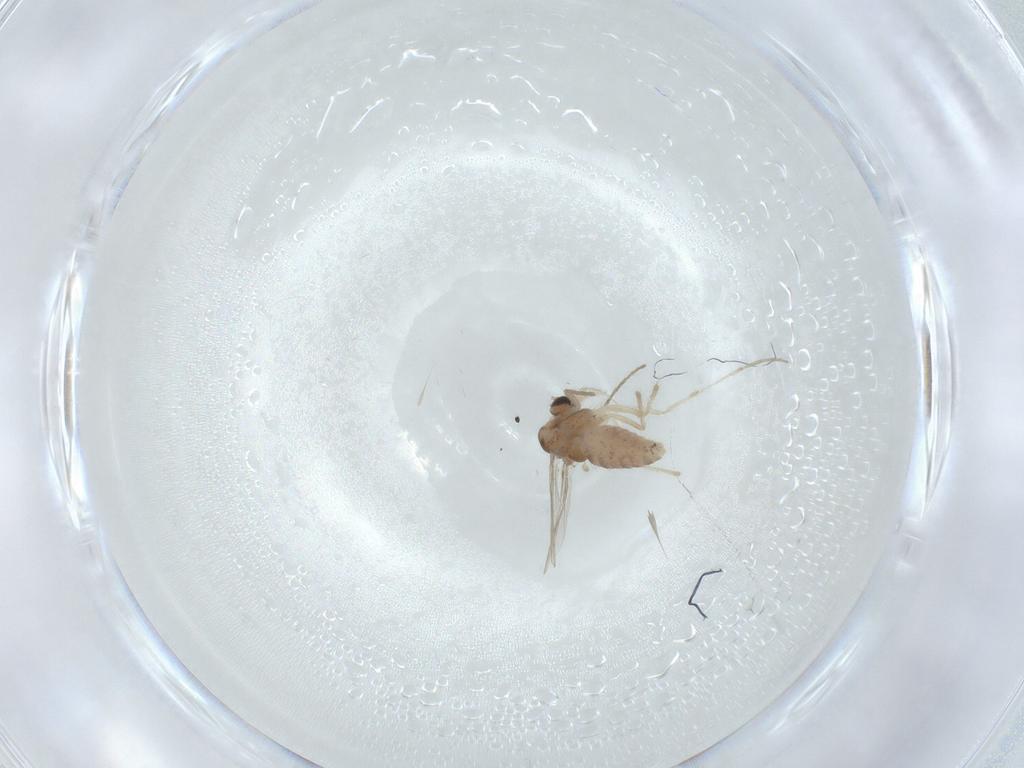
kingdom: Animalia
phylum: Arthropoda
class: Insecta
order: Diptera
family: Chironomidae
